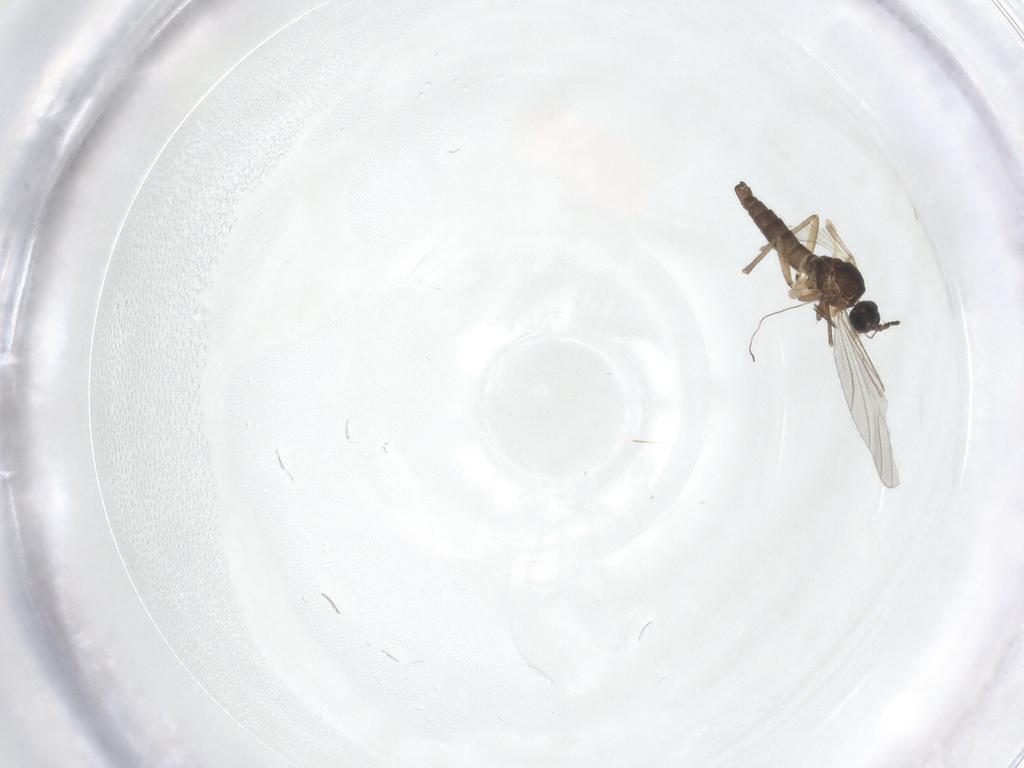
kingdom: Animalia
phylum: Arthropoda
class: Insecta
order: Diptera
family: Sciaridae
